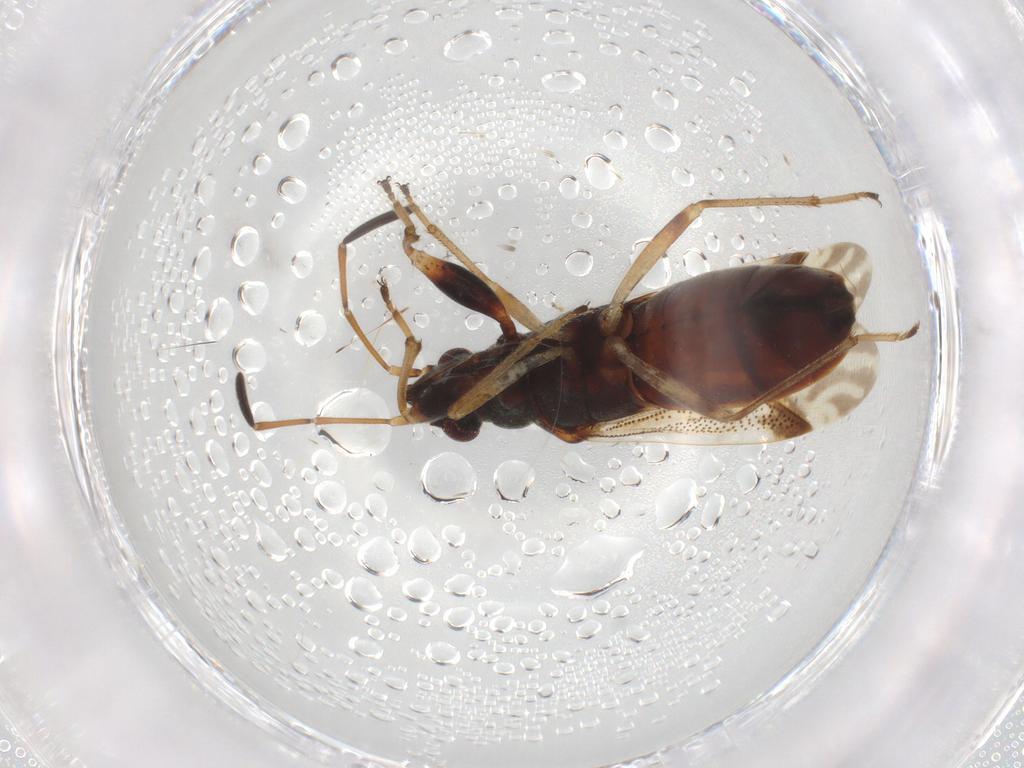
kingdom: Animalia
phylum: Arthropoda
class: Insecta
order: Hemiptera
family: Rhyparochromidae
